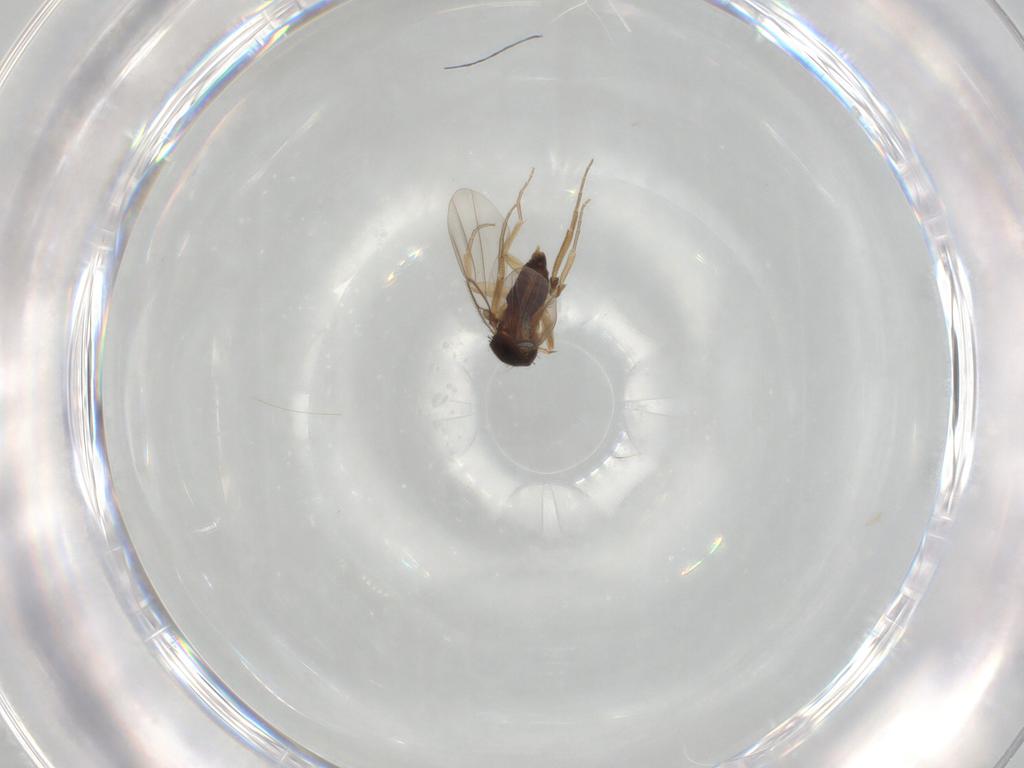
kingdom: Animalia
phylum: Arthropoda
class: Insecta
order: Diptera
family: Phoridae
